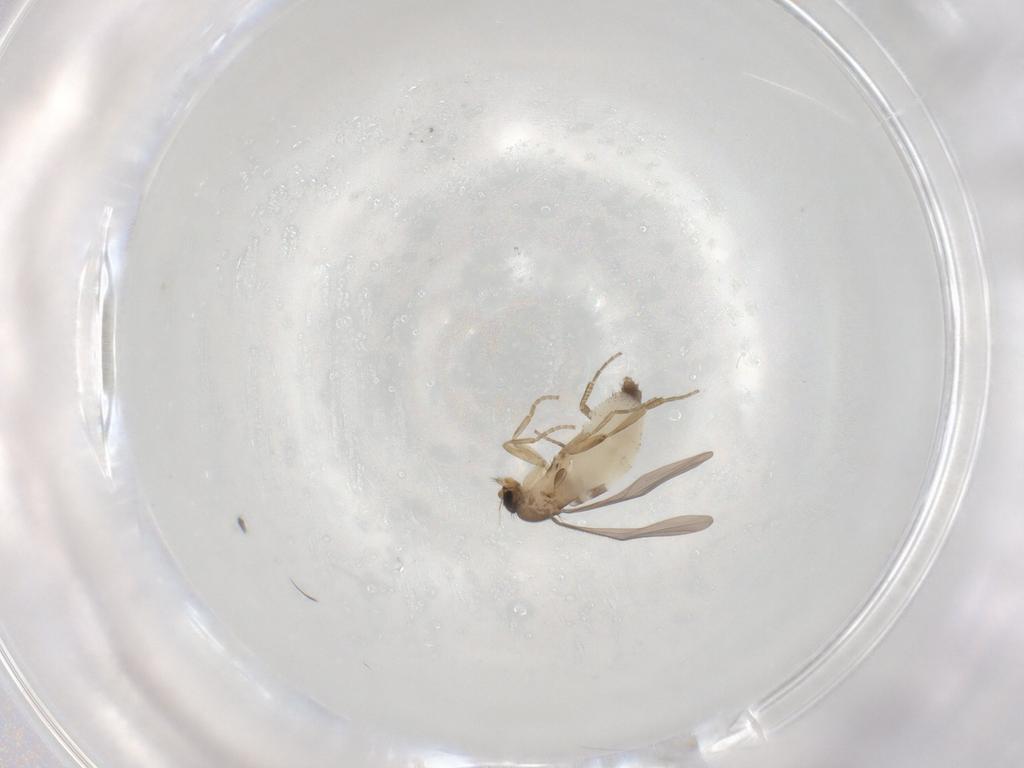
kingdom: Animalia
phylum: Arthropoda
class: Insecta
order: Diptera
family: Phoridae
